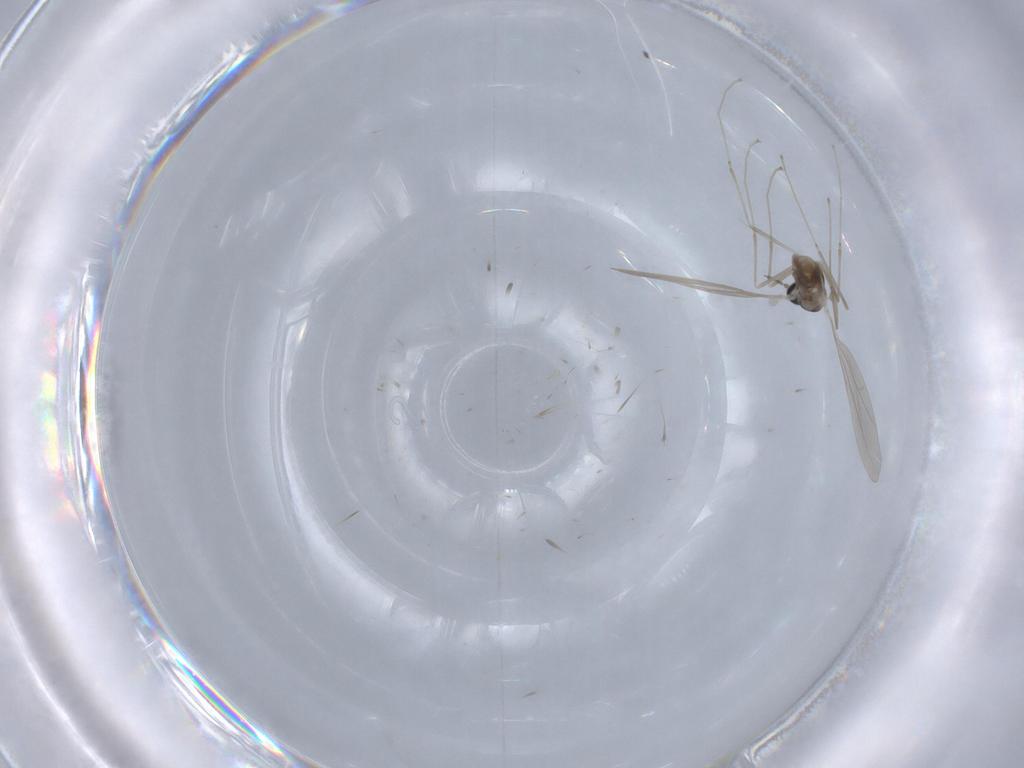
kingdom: Animalia
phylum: Arthropoda
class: Insecta
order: Diptera
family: Cecidomyiidae
